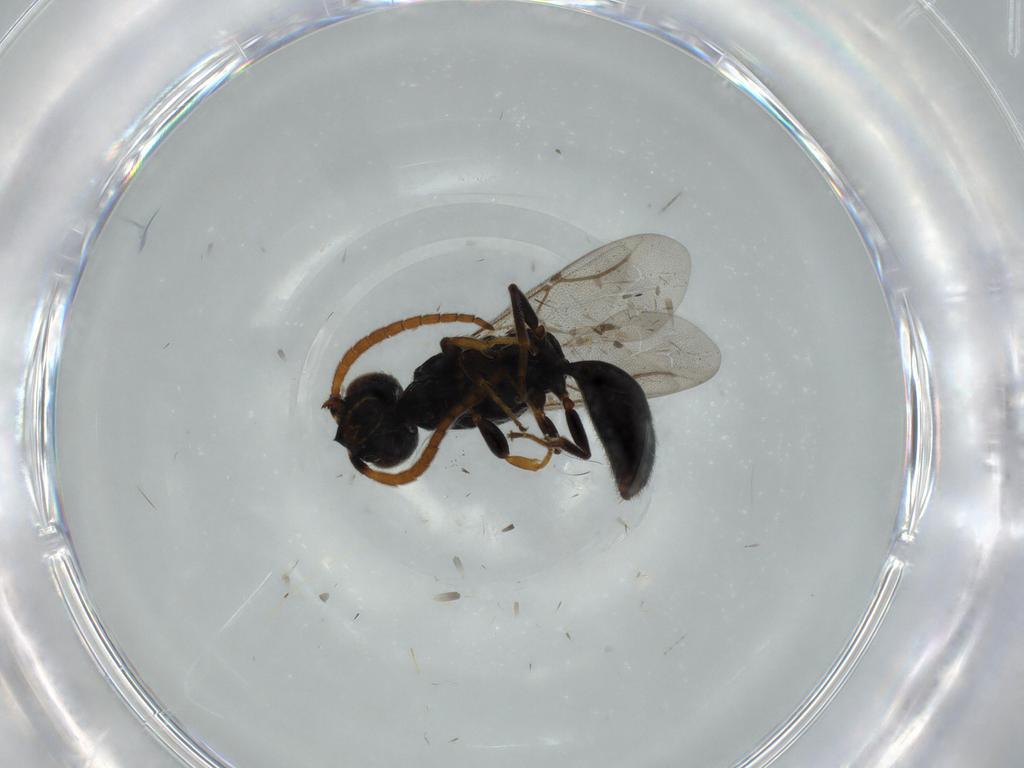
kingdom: Animalia
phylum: Arthropoda
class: Insecta
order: Hymenoptera
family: Bethylidae
